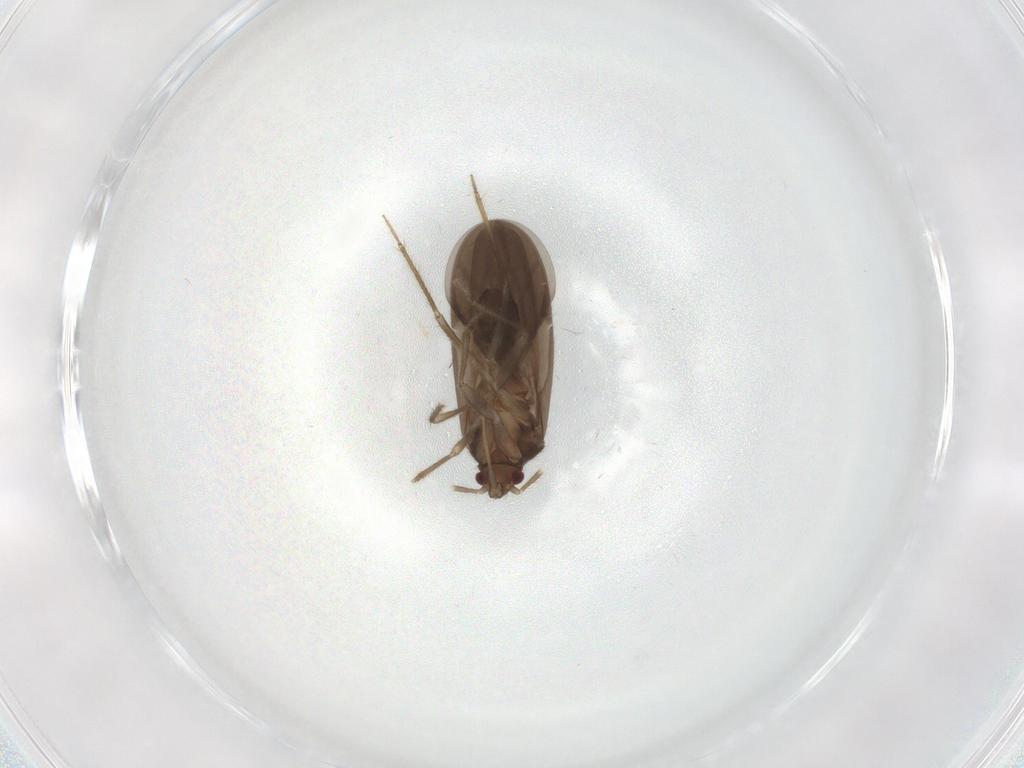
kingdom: Animalia
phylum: Arthropoda
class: Insecta
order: Hemiptera
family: Ceratocombidae
